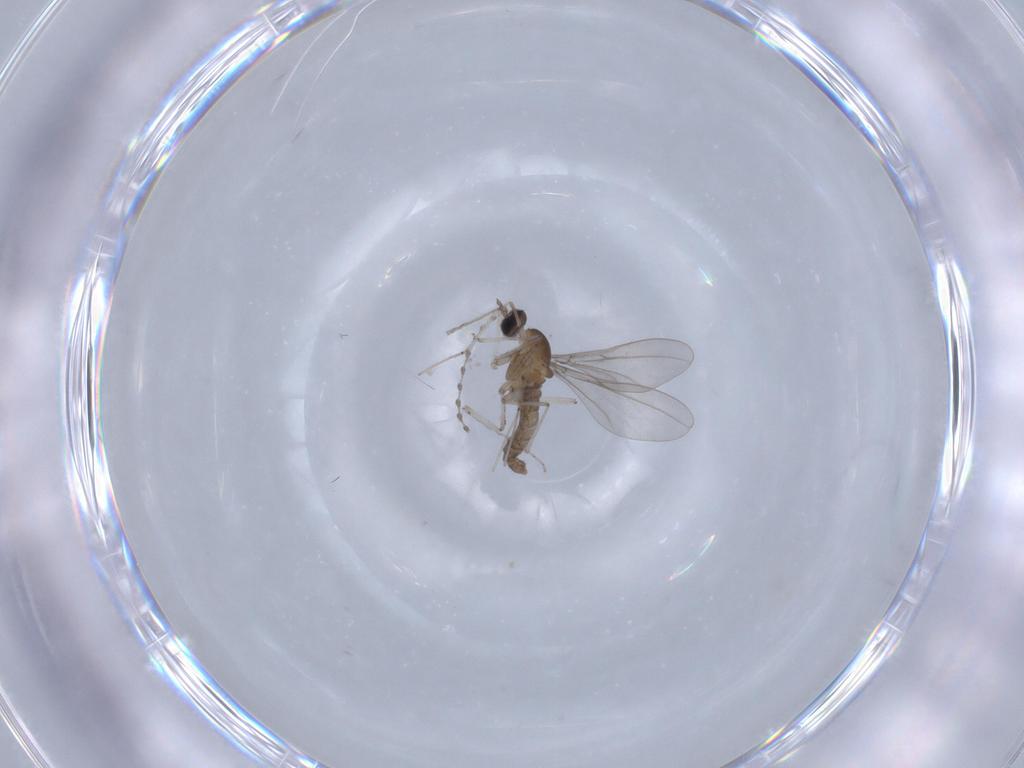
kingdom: Animalia
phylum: Arthropoda
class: Insecta
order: Diptera
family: Cecidomyiidae
